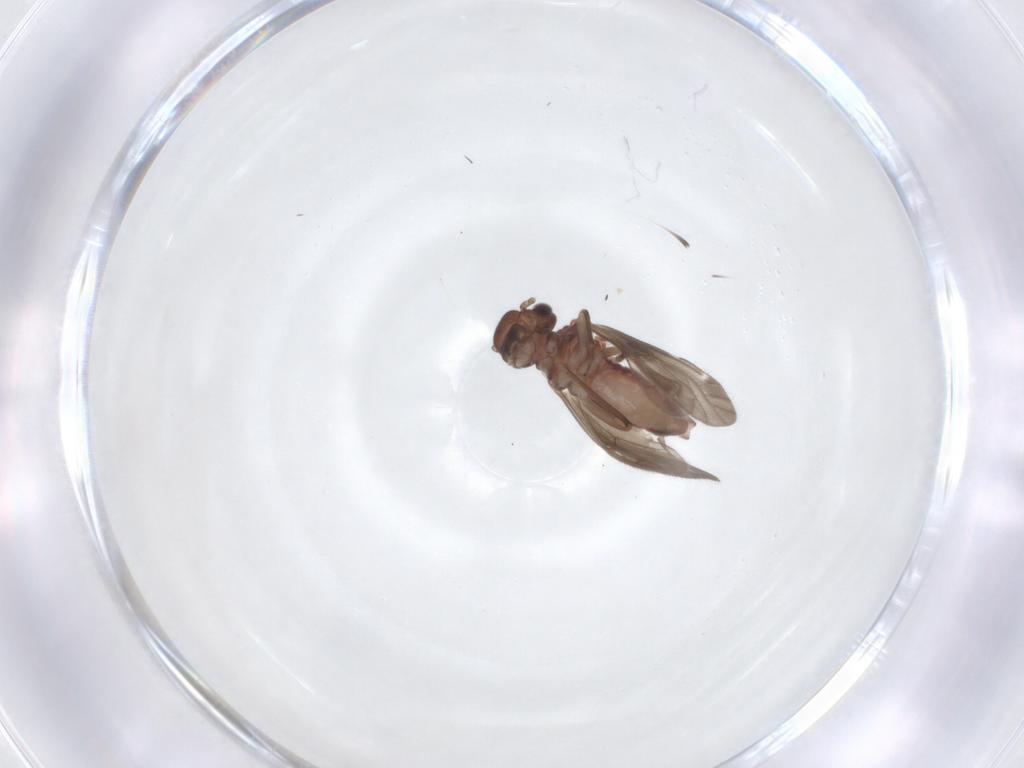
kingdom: Animalia
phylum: Arthropoda
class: Insecta
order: Psocodea
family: Caeciliusidae
